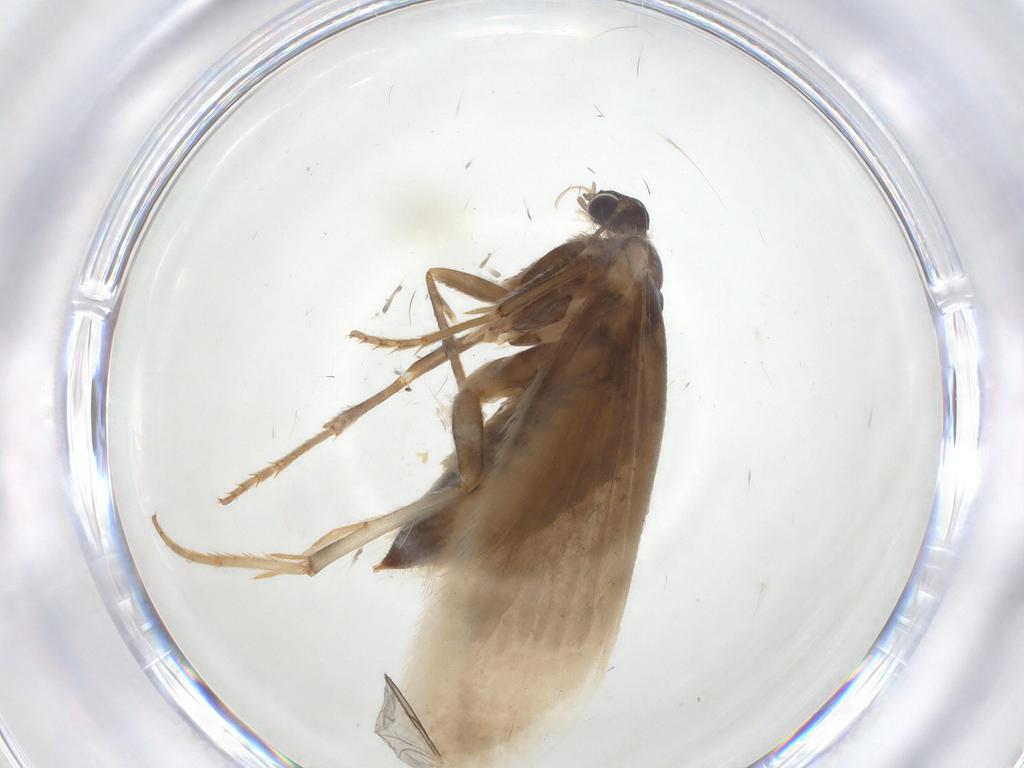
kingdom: Animalia
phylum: Arthropoda
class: Insecta
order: Lepidoptera
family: Tridentaformidae
